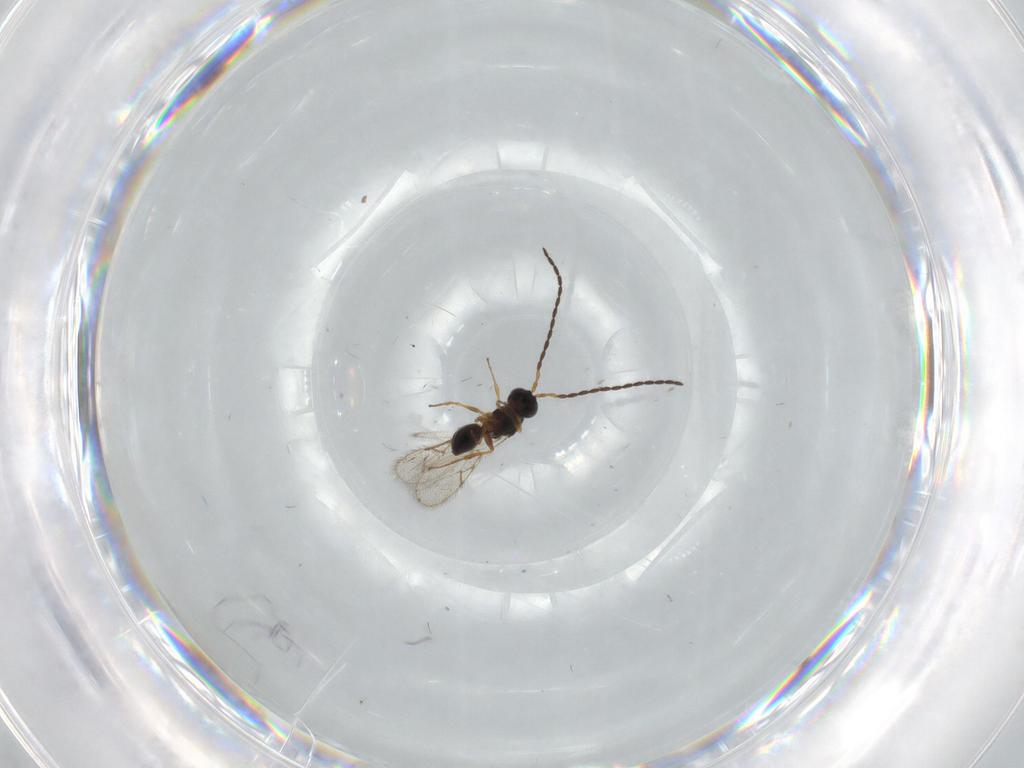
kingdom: Animalia
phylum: Arthropoda
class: Insecta
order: Hymenoptera
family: Figitidae
